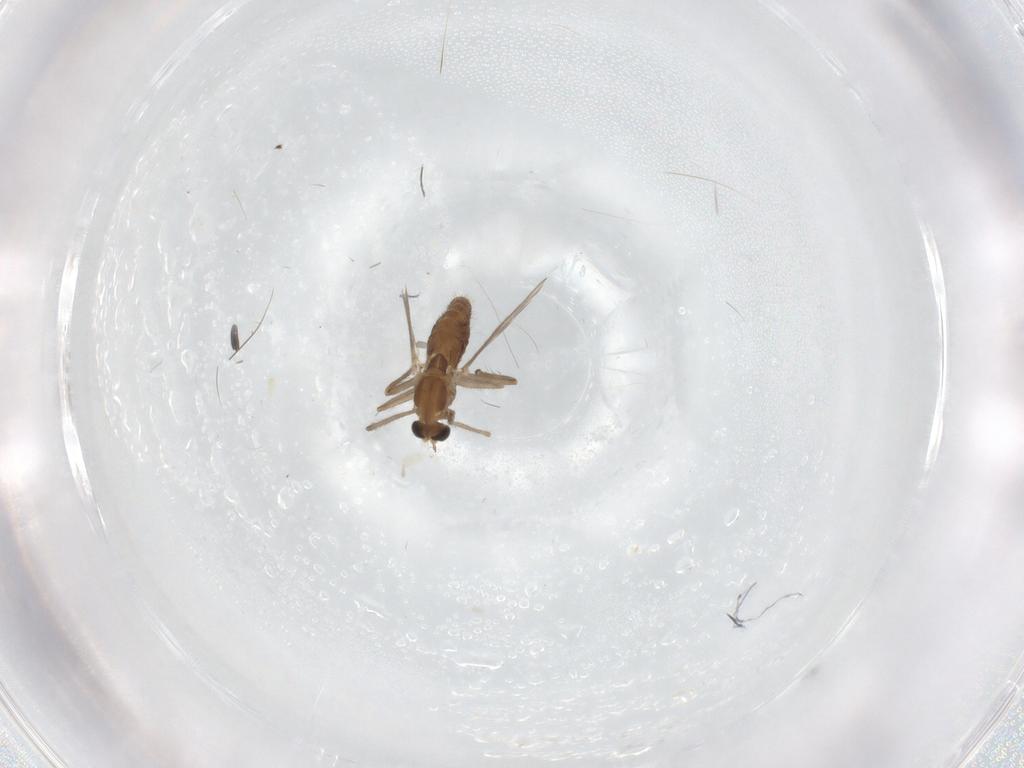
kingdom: Animalia
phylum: Arthropoda
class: Insecta
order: Diptera
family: Chironomidae
